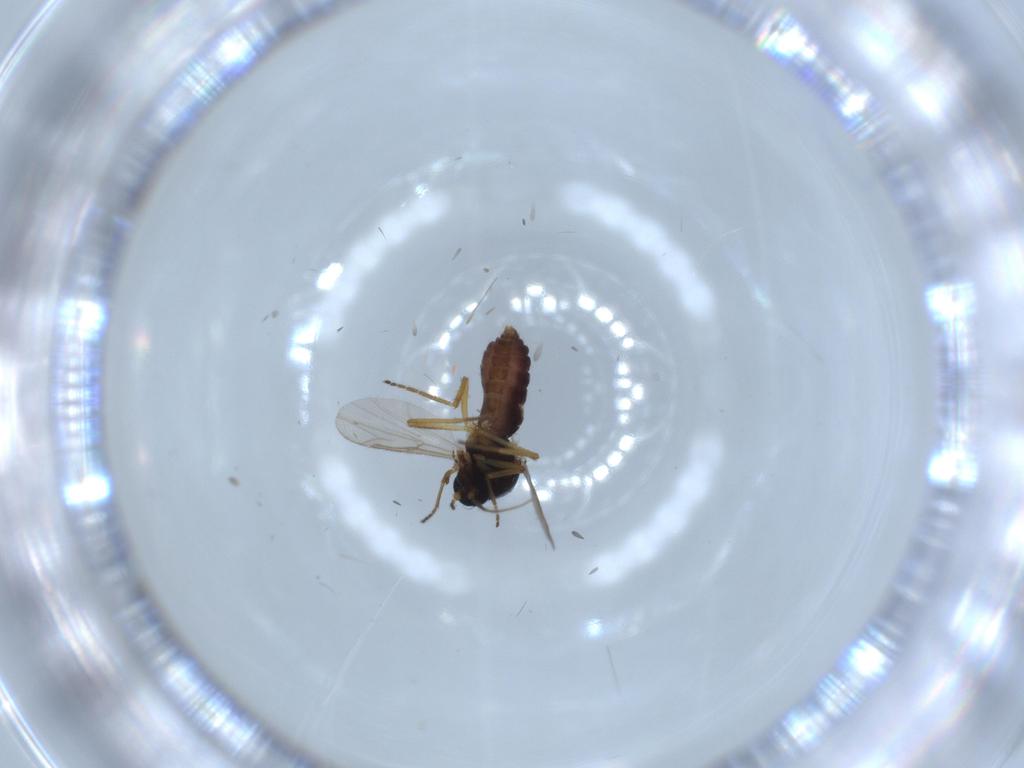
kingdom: Animalia
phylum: Arthropoda
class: Insecta
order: Diptera
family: Ceratopogonidae
